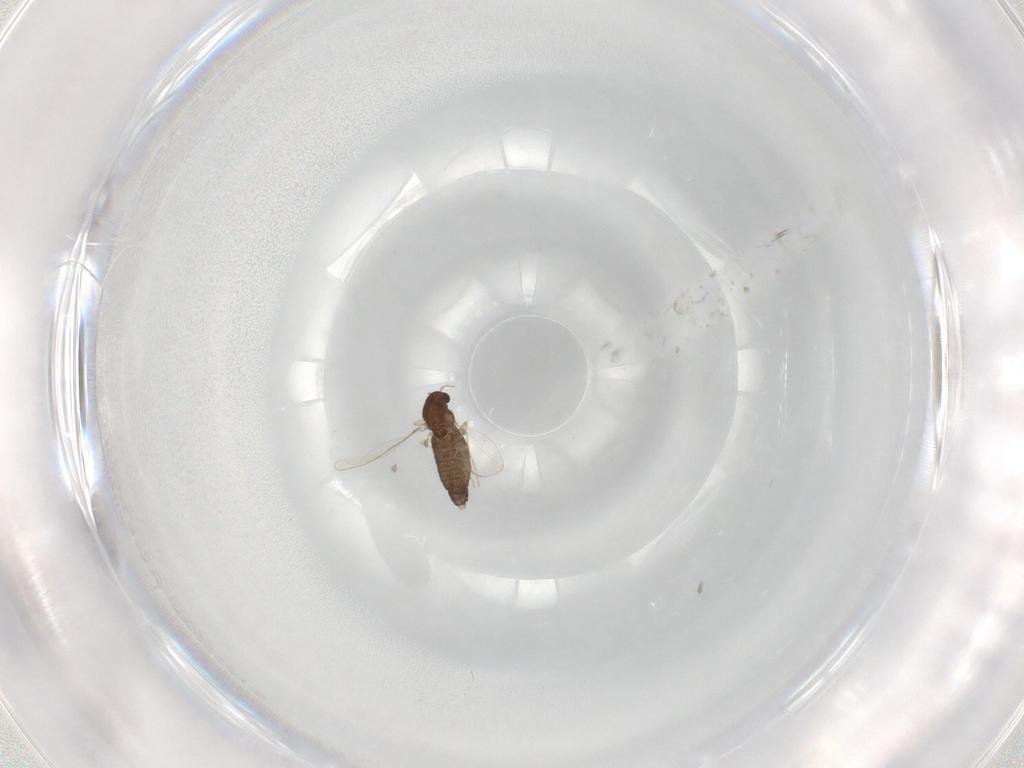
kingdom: Animalia
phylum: Arthropoda
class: Insecta
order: Diptera
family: Chironomidae
